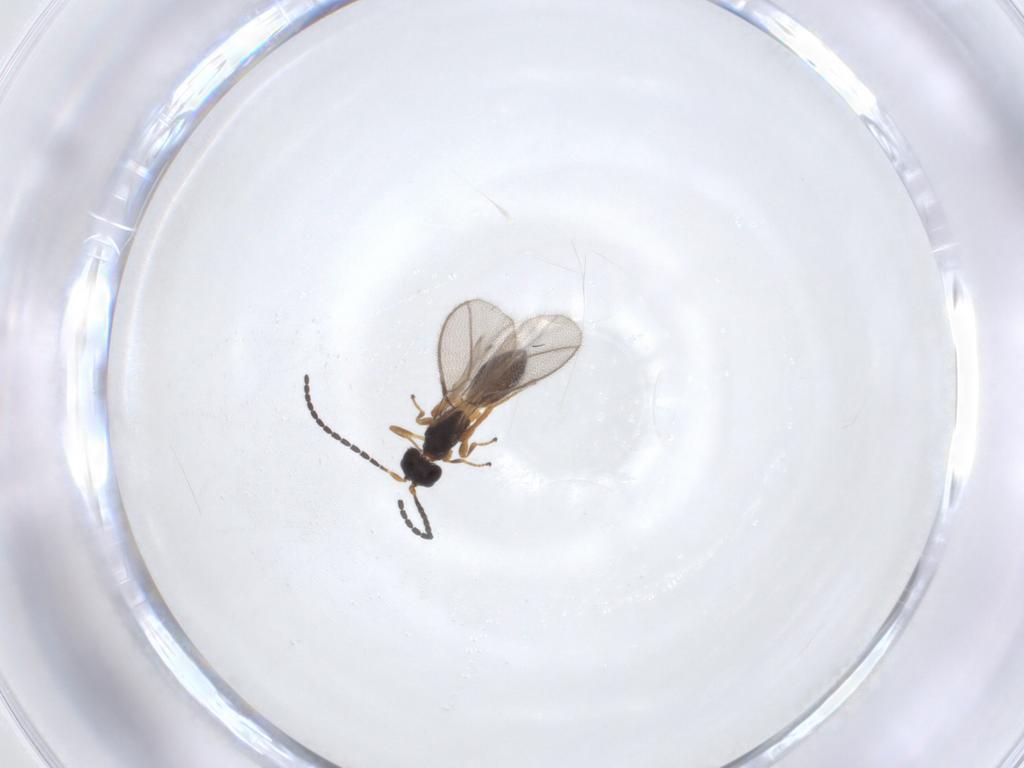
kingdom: Animalia
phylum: Arthropoda
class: Insecta
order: Hymenoptera
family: Braconidae
